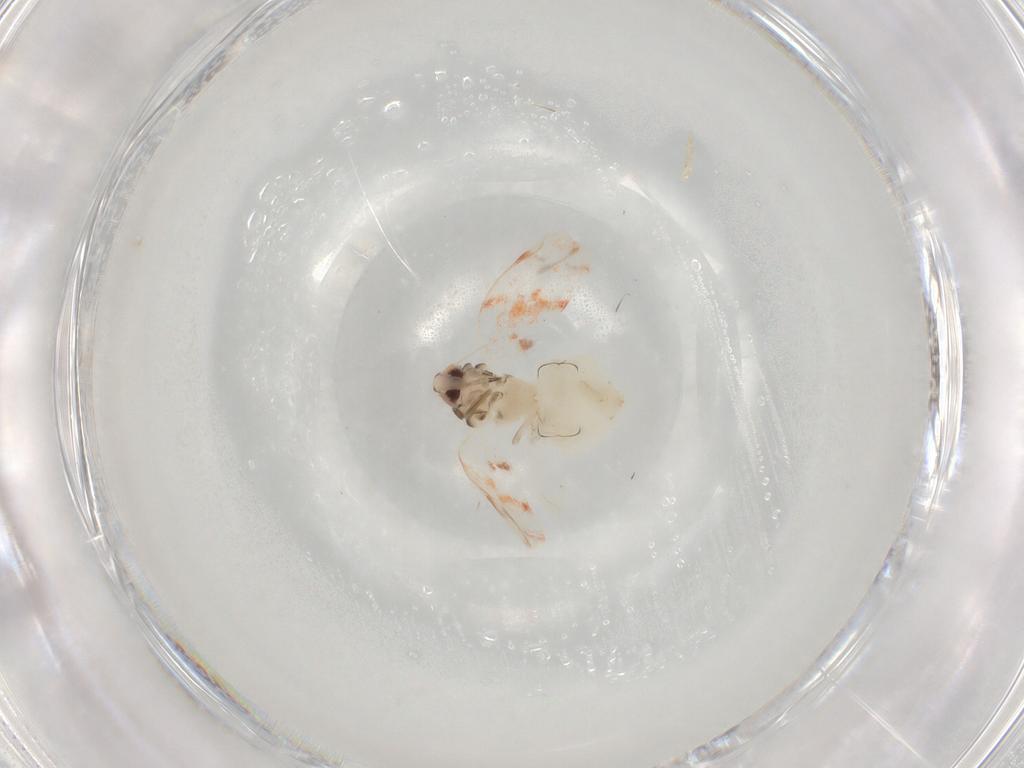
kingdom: Animalia
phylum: Arthropoda
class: Insecta
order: Hemiptera
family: Aleyrodidae
